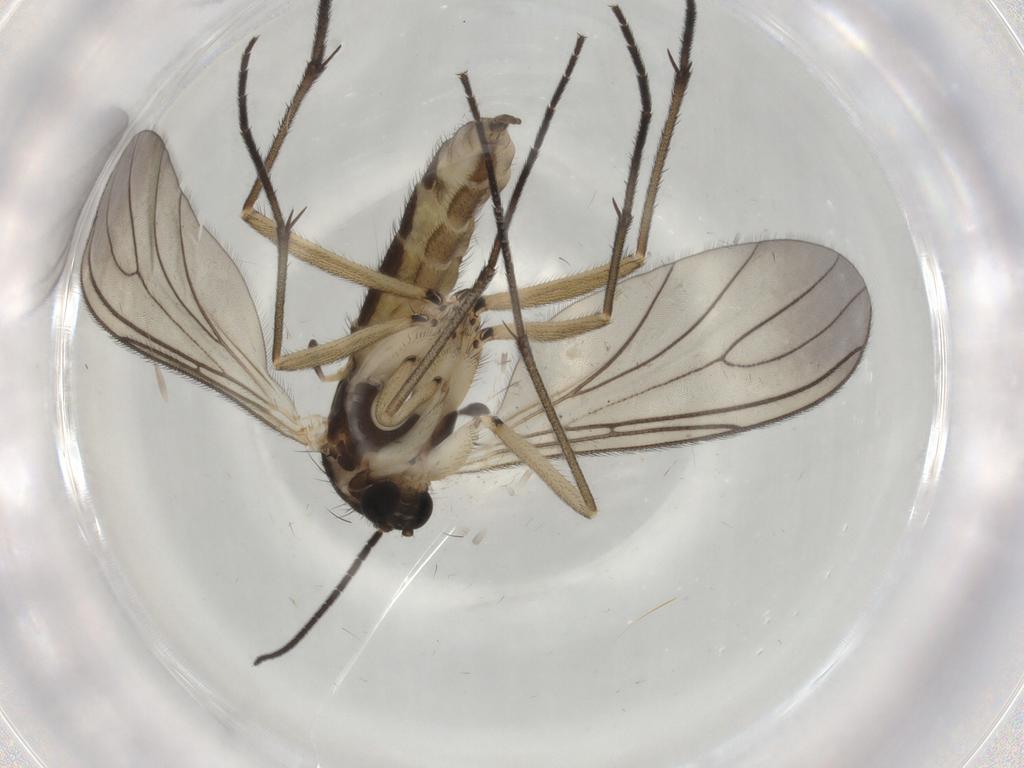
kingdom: Animalia
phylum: Arthropoda
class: Insecta
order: Diptera
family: Sciaridae
